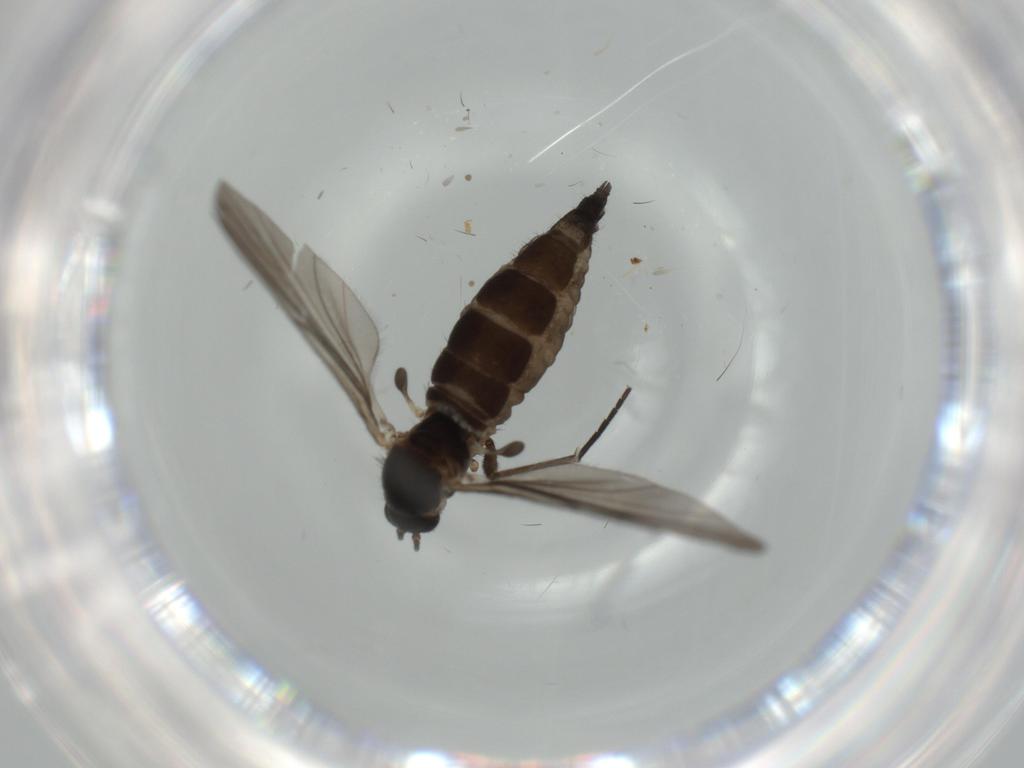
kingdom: Animalia
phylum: Arthropoda
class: Insecta
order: Diptera
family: Sciaridae
